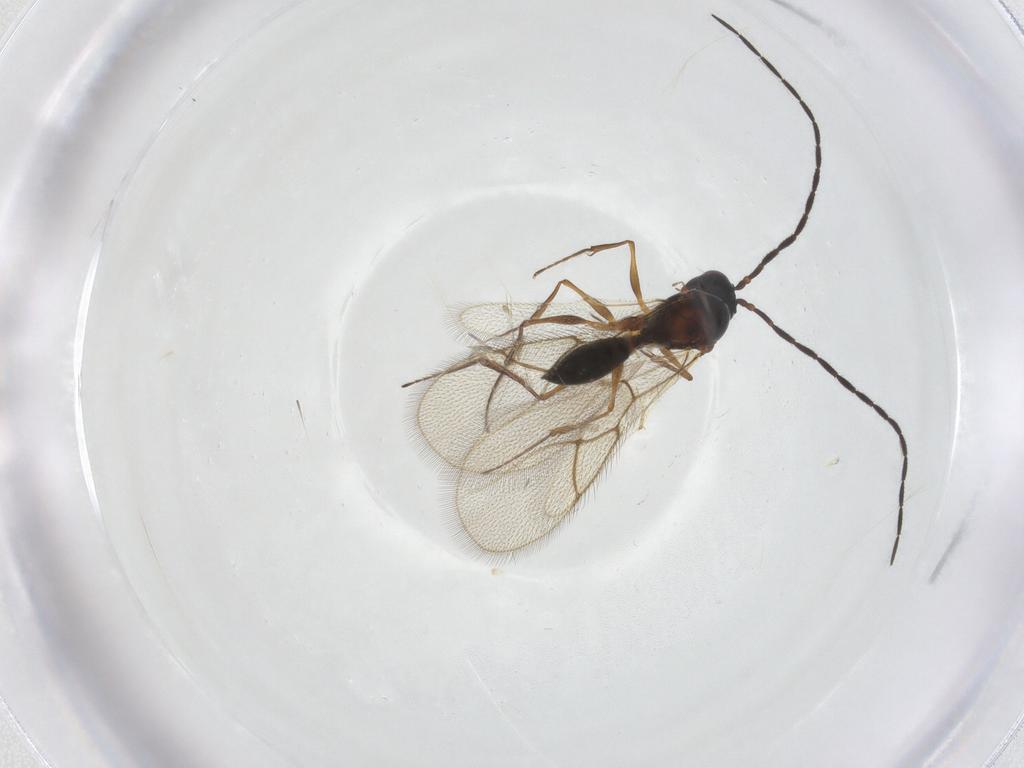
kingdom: Animalia
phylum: Arthropoda
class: Insecta
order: Hymenoptera
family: Figitidae
